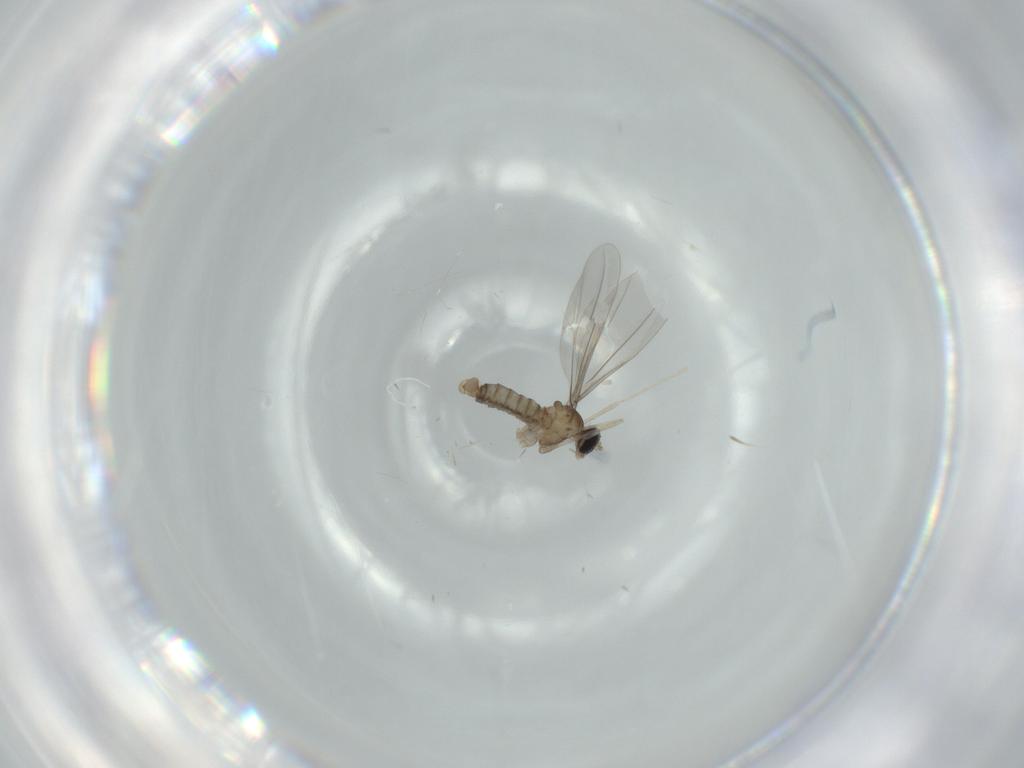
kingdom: Animalia
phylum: Arthropoda
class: Insecta
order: Diptera
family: Cecidomyiidae
